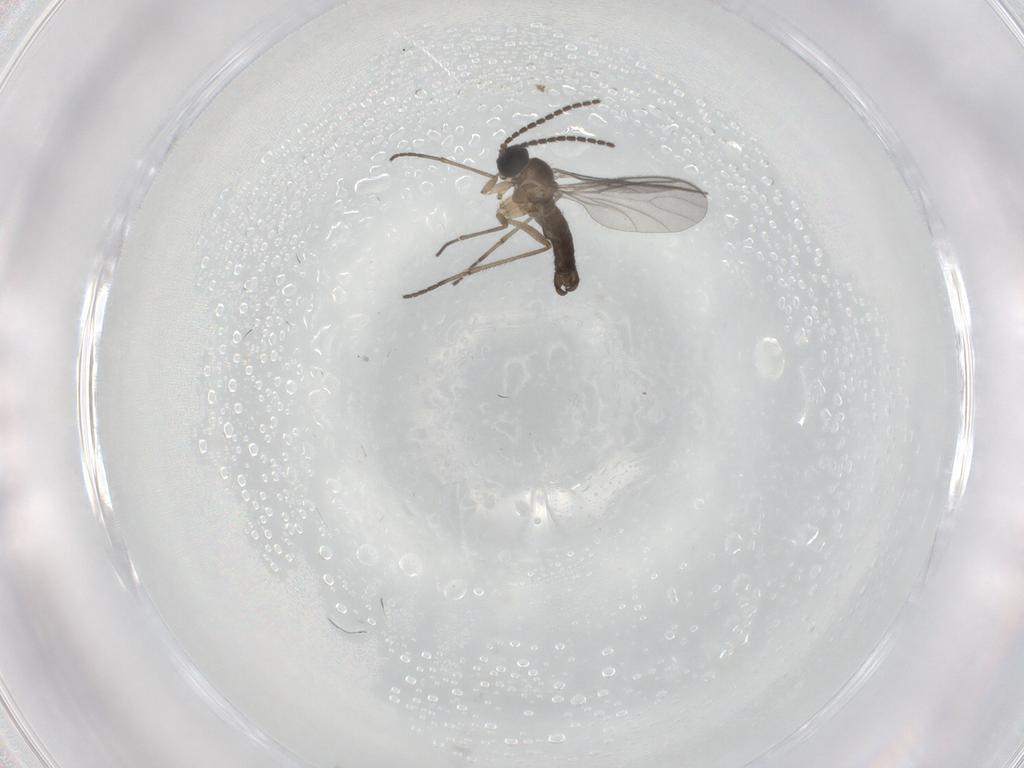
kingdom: Animalia
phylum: Arthropoda
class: Insecta
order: Diptera
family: Sciaridae
